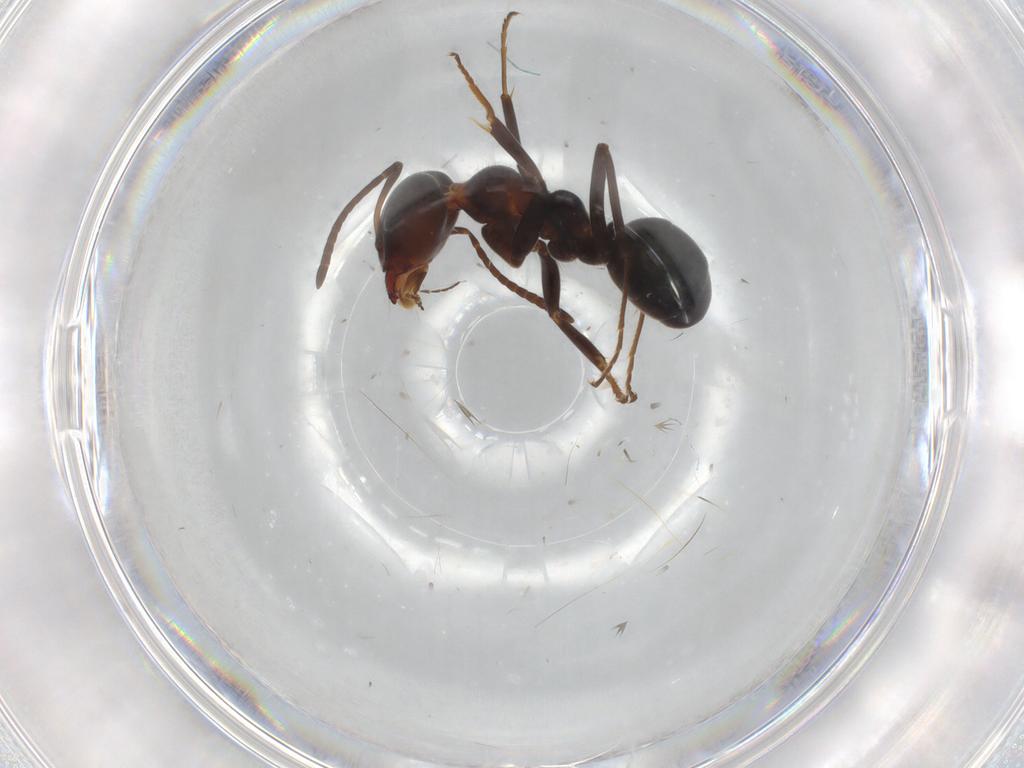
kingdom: Animalia
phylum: Arthropoda
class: Insecta
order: Hymenoptera
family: Formicidae
